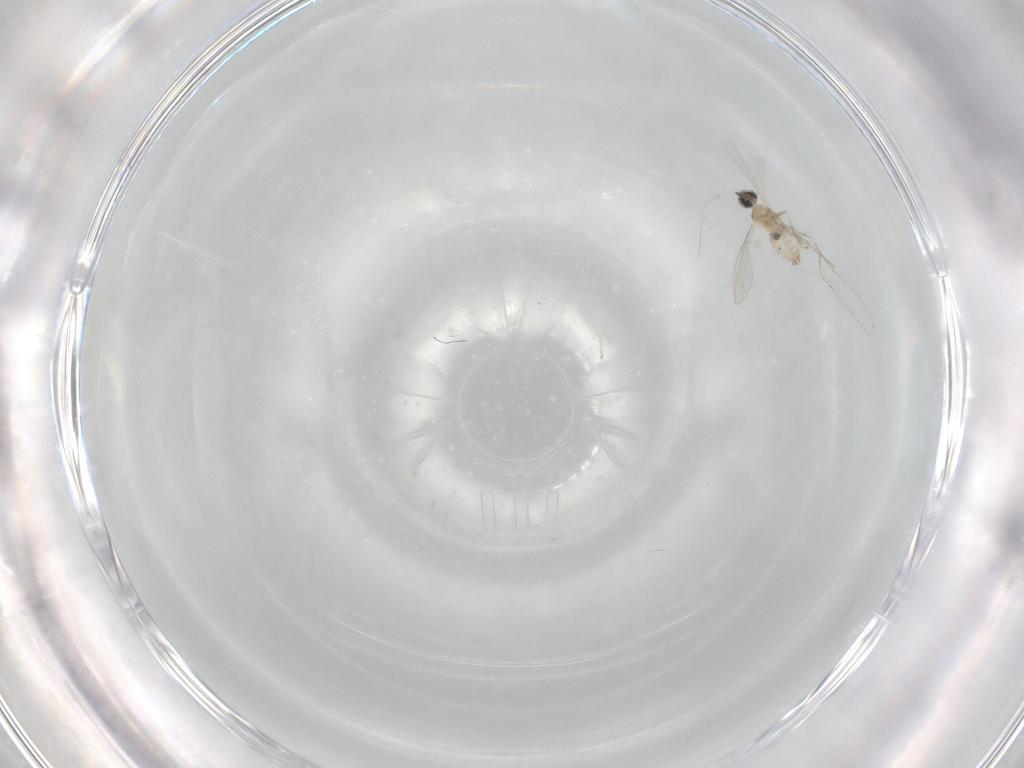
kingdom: Animalia
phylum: Arthropoda
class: Insecta
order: Diptera
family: Cecidomyiidae
